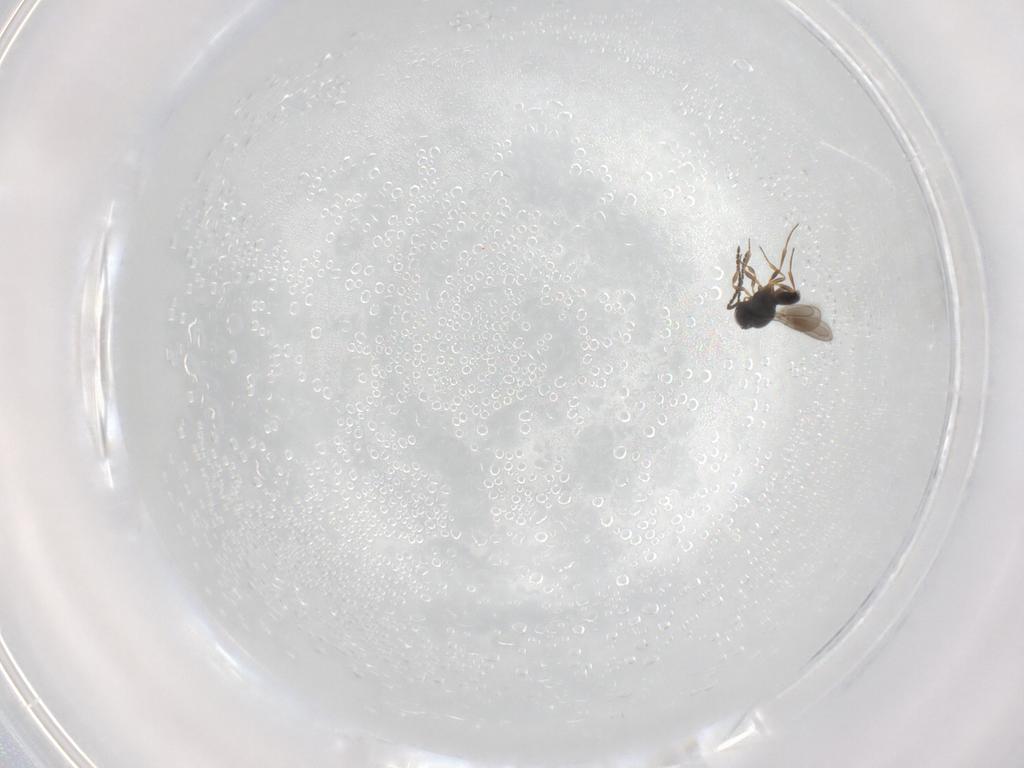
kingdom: Animalia
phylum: Arthropoda
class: Insecta
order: Hymenoptera
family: Scelionidae
